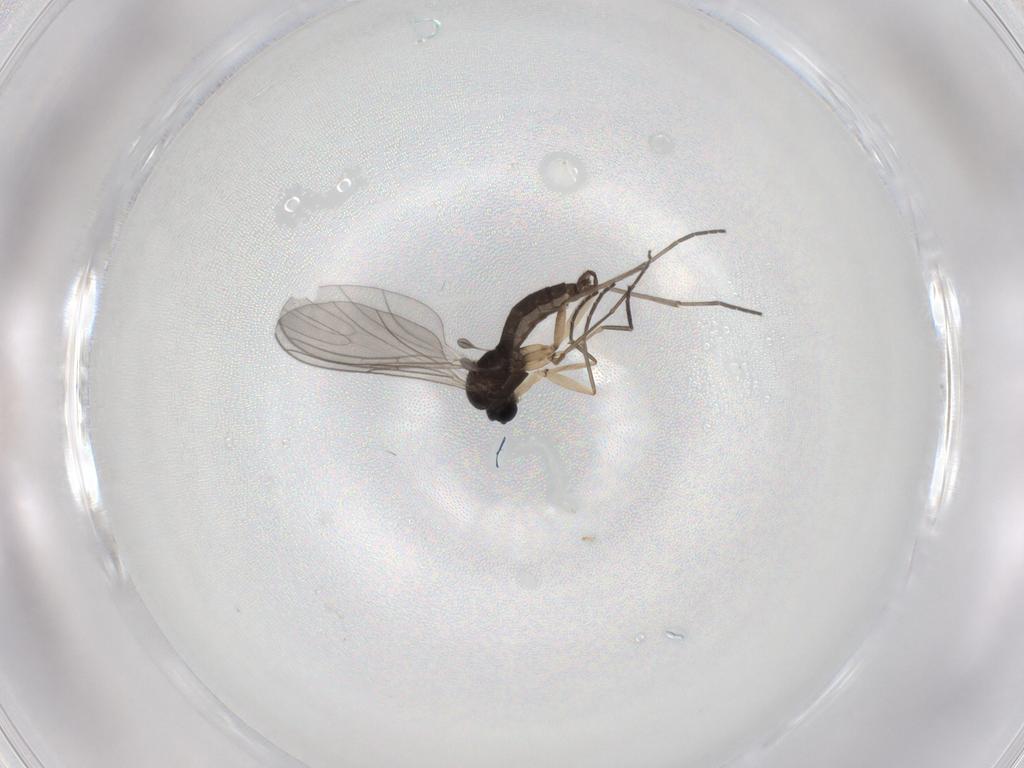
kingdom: Animalia
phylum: Arthropoda
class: Insecta
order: Diptera
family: Sciaridae
